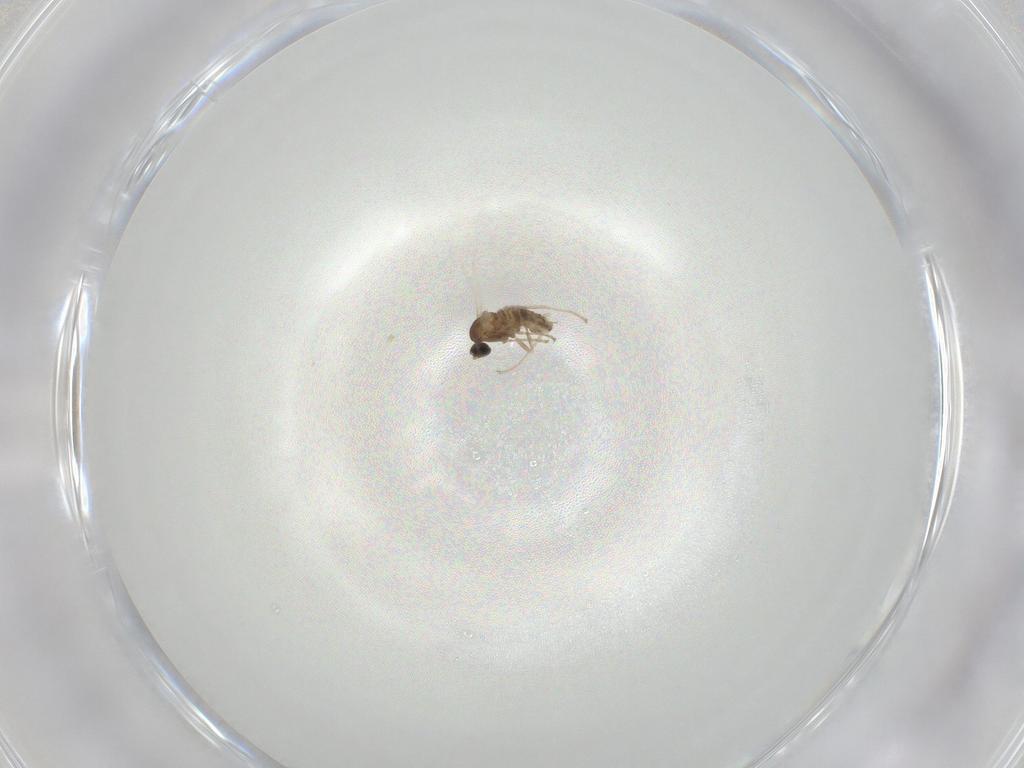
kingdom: Animalia
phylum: Arthropoda
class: Insecta
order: Diptera
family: Cecidomyiidae
